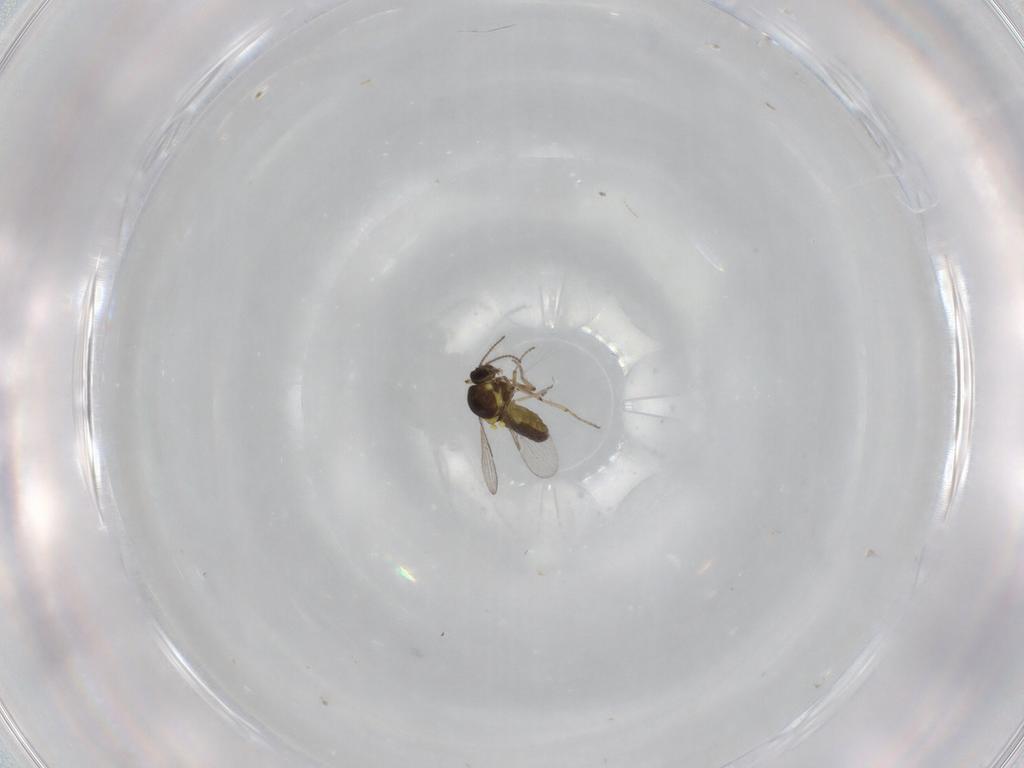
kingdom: Animalia
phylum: Arthropoda
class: Insecta
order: Diptera
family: Ceratopogonidae
